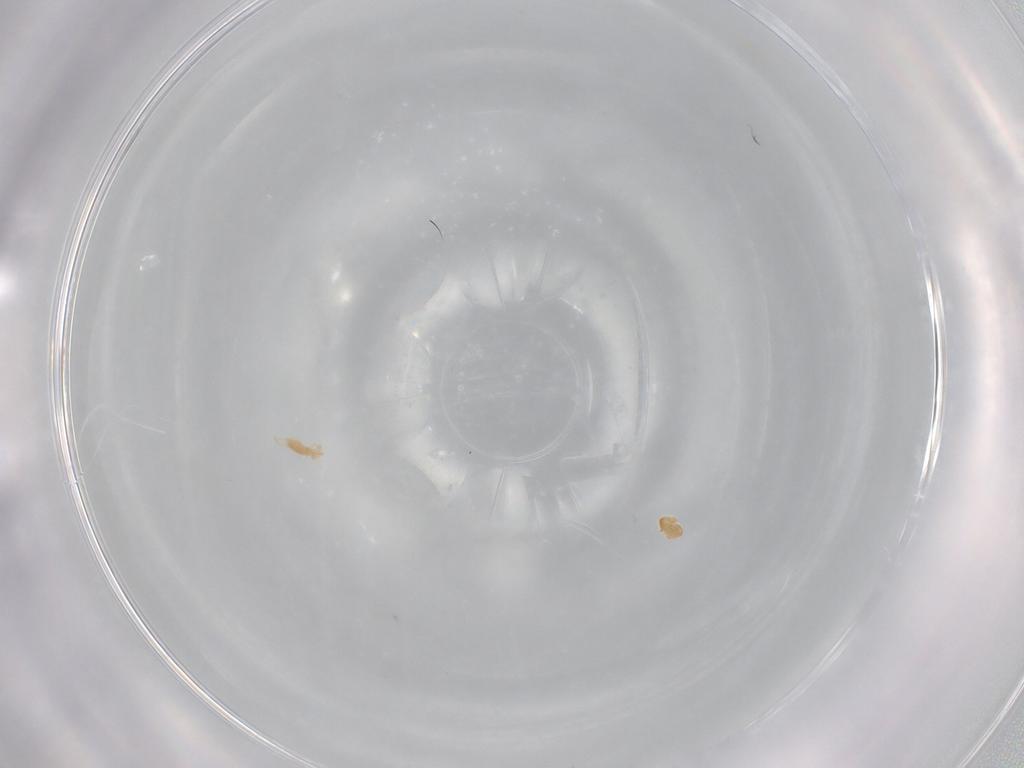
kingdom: Animalia
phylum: Arthropoda
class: Arachnida
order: Trombidiformes
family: Erythraeidae
